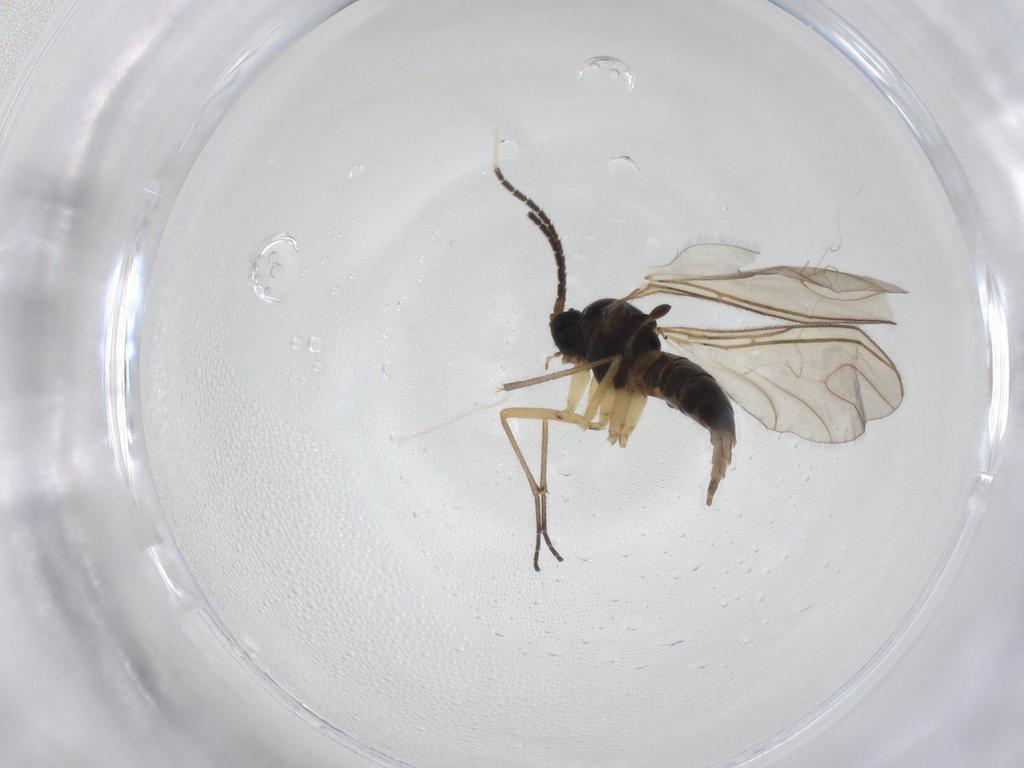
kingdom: Animalia
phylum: Arthropoda
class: Insecta
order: Diptera
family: Sciaridae
